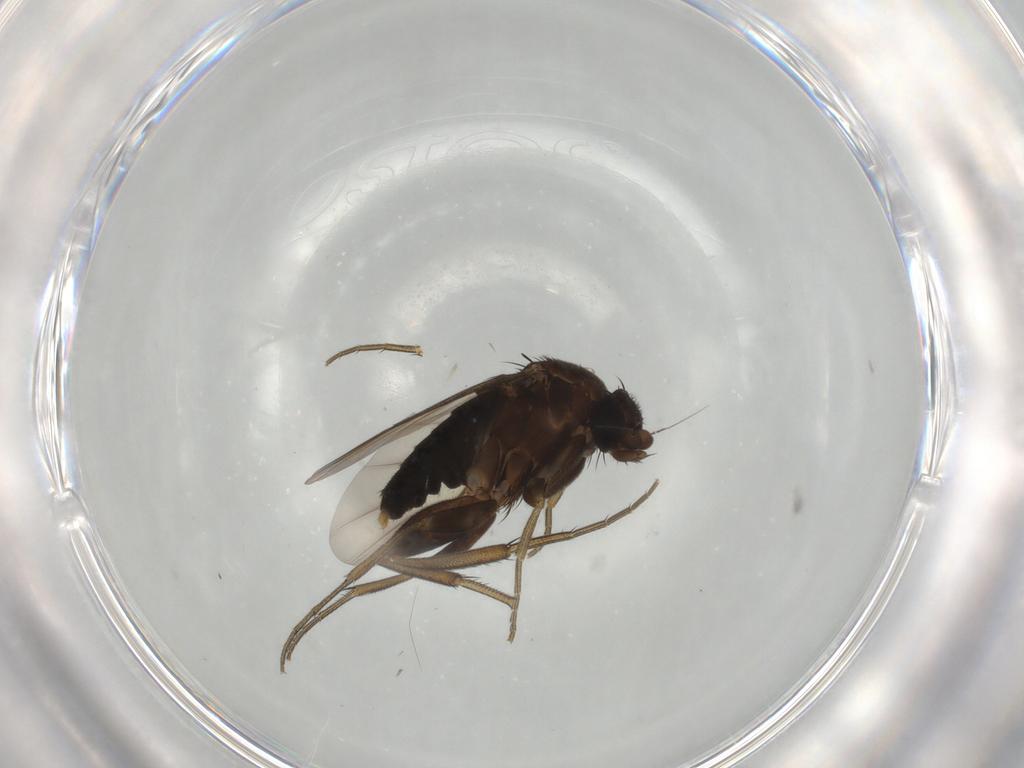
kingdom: Animalia
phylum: Arthropoda
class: Insecta
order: Diptera
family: Phoridae
